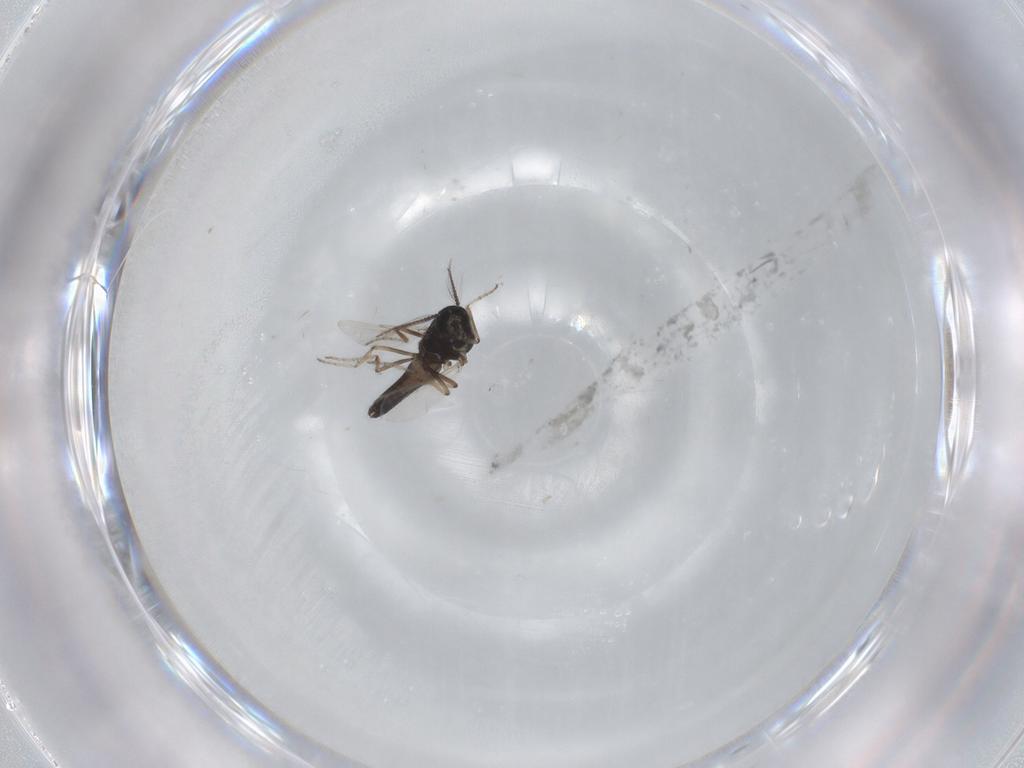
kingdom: Animalia
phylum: Arthropoda
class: Insecta
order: Diptera
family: Ceratopogonidae
